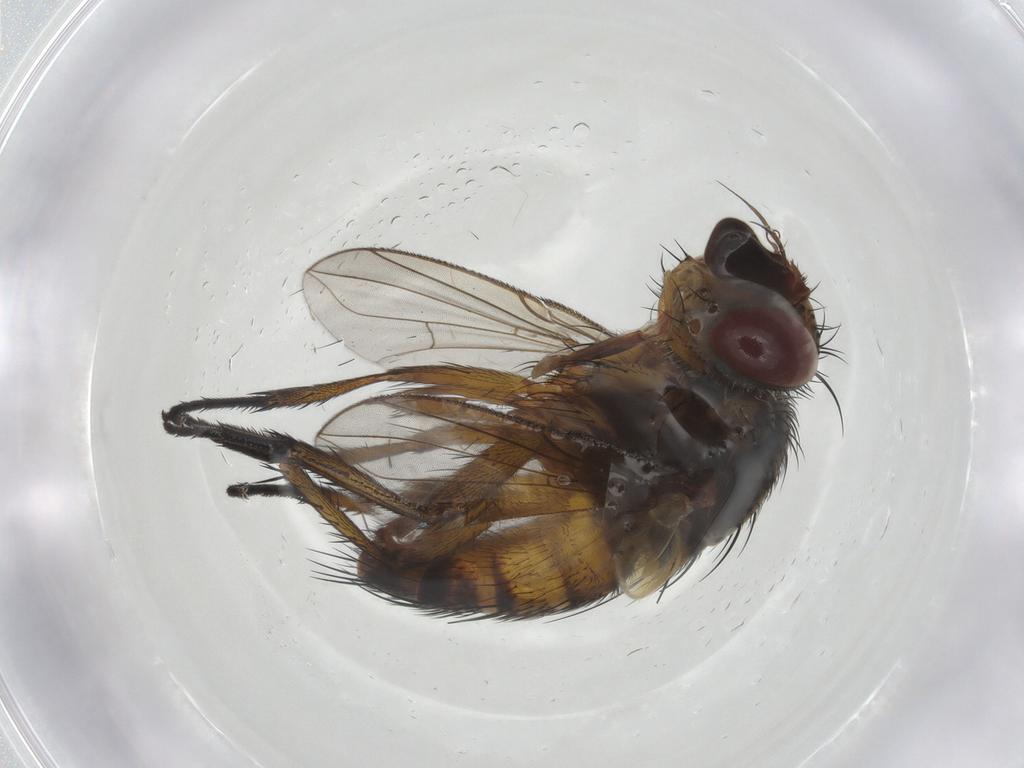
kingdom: Animalia
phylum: Arthropoda
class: Insecta
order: Diptera
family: Tachinidae
